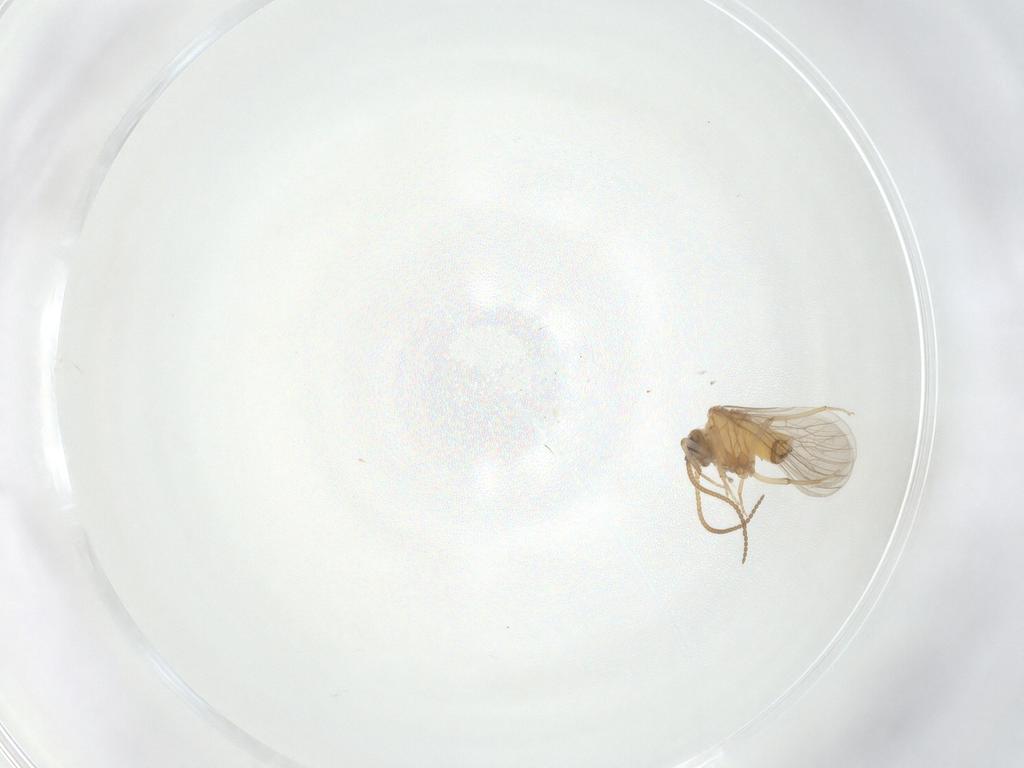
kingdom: Animalia
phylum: Arthropoda
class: Insecta
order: Neuroptera
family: Coniopterygidae
